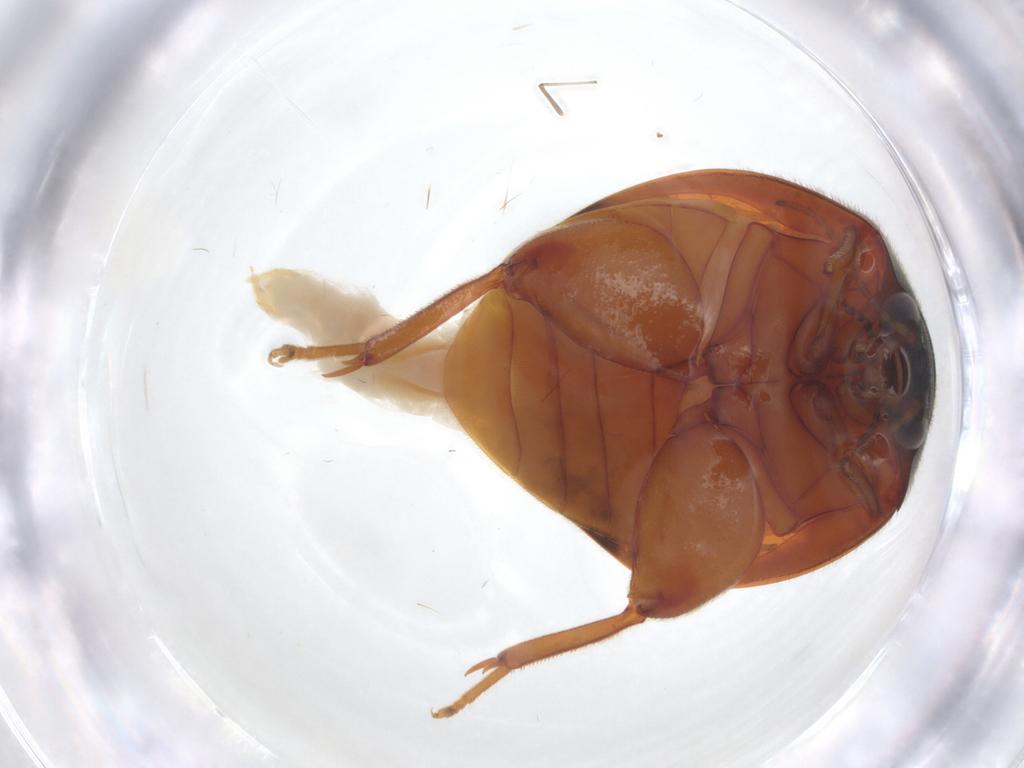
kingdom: Animalia
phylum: Arthropoda
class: Insecta
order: Coleoptera
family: Scirtidae
